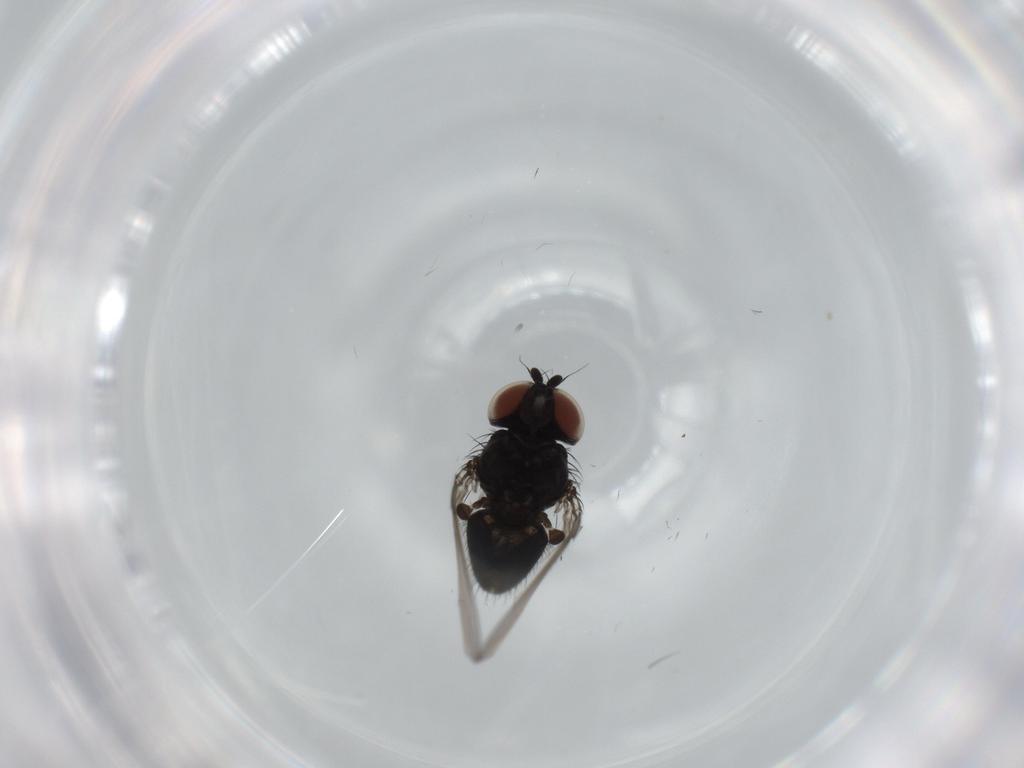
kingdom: Animalia
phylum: Arthropoda
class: Insecta
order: Diptera
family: Milichiidae
